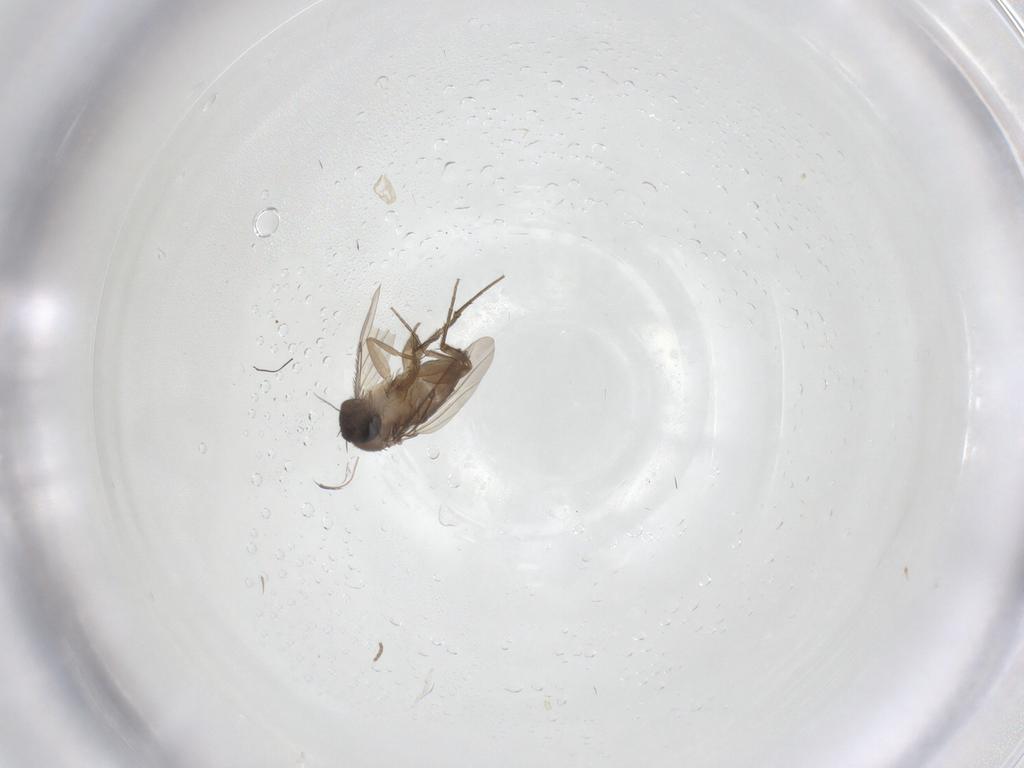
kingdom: Animalia
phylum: Arthropoda
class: Insecta
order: Diptera
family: Phoridae
